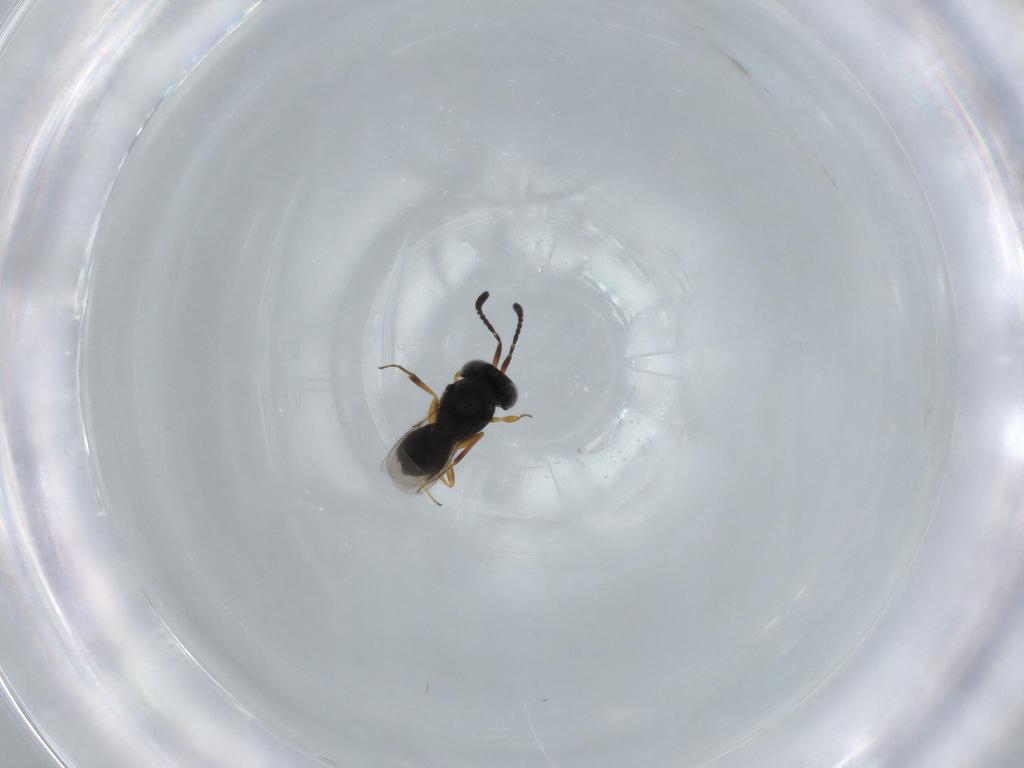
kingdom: Animalia
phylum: Arthropoda
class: Insecta
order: Hymenoptera
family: Scelionidae
